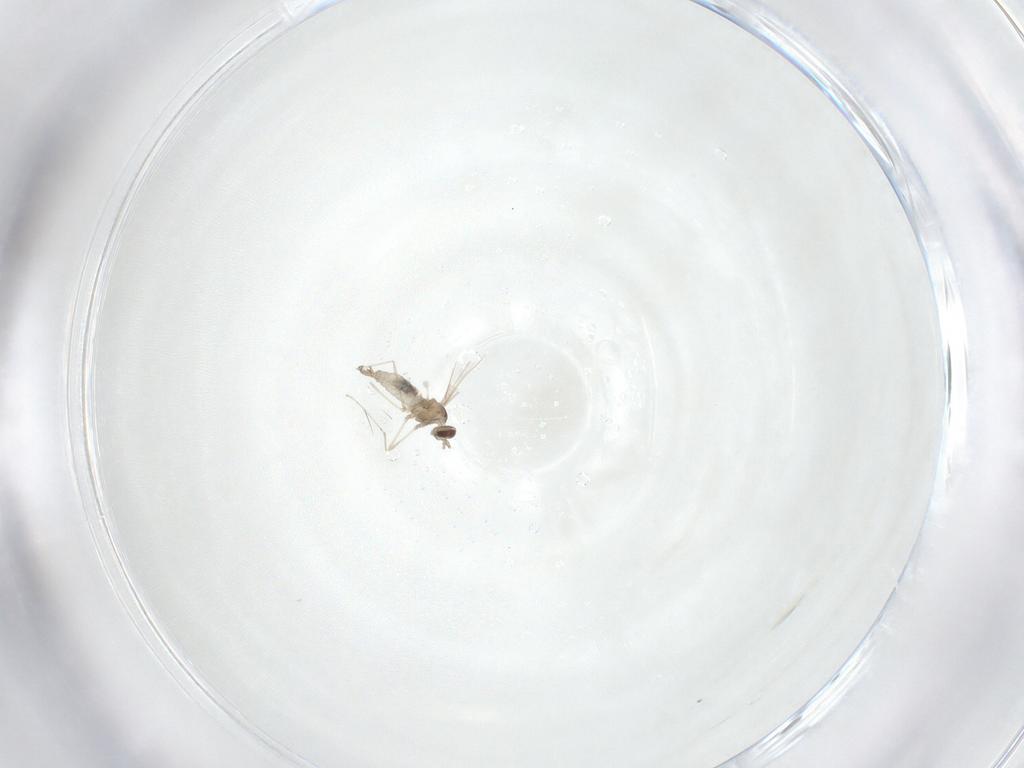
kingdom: Animalia
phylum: Arthropoda
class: Insecta
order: Diptera
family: Cecidomyiidae
